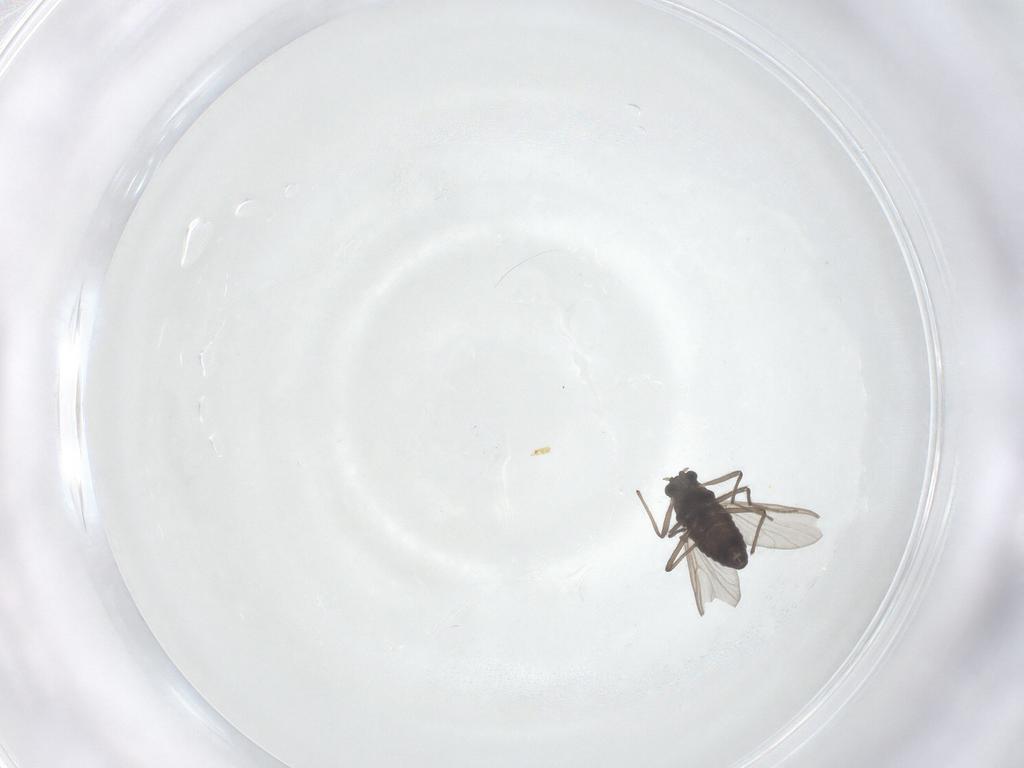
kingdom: Animalia
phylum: Arthropoda
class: Insecta
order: Diptera
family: Chironomidae
